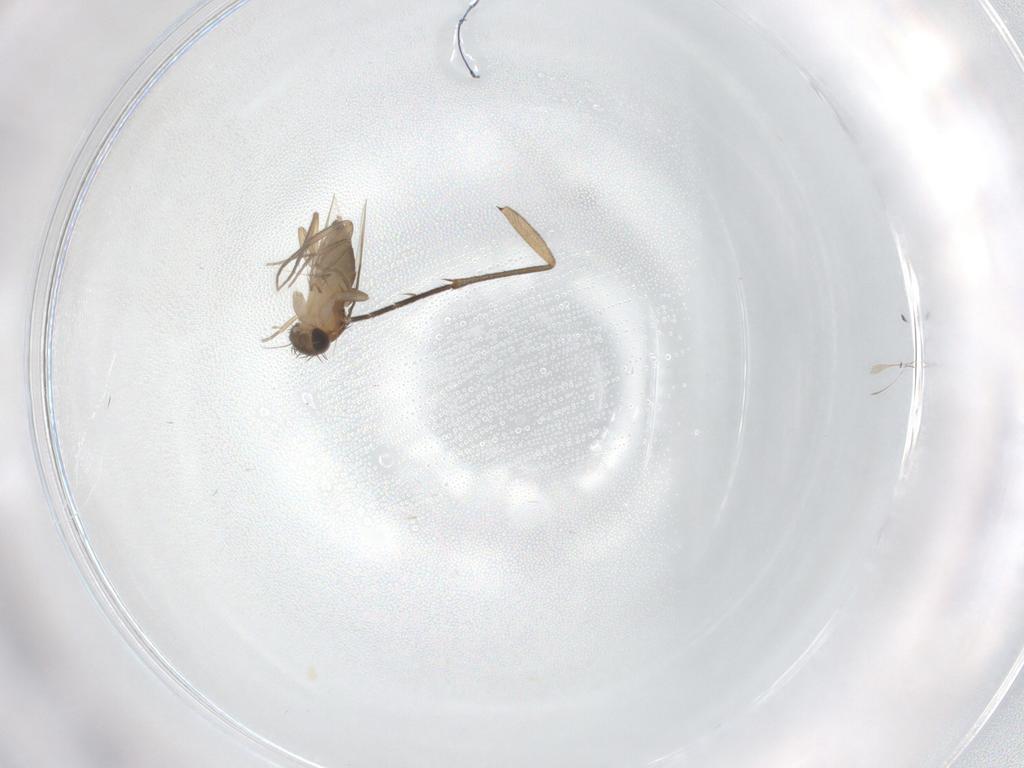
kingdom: Animalia
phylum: Arthropoda
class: Insecta
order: Diptera
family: Phoridae
